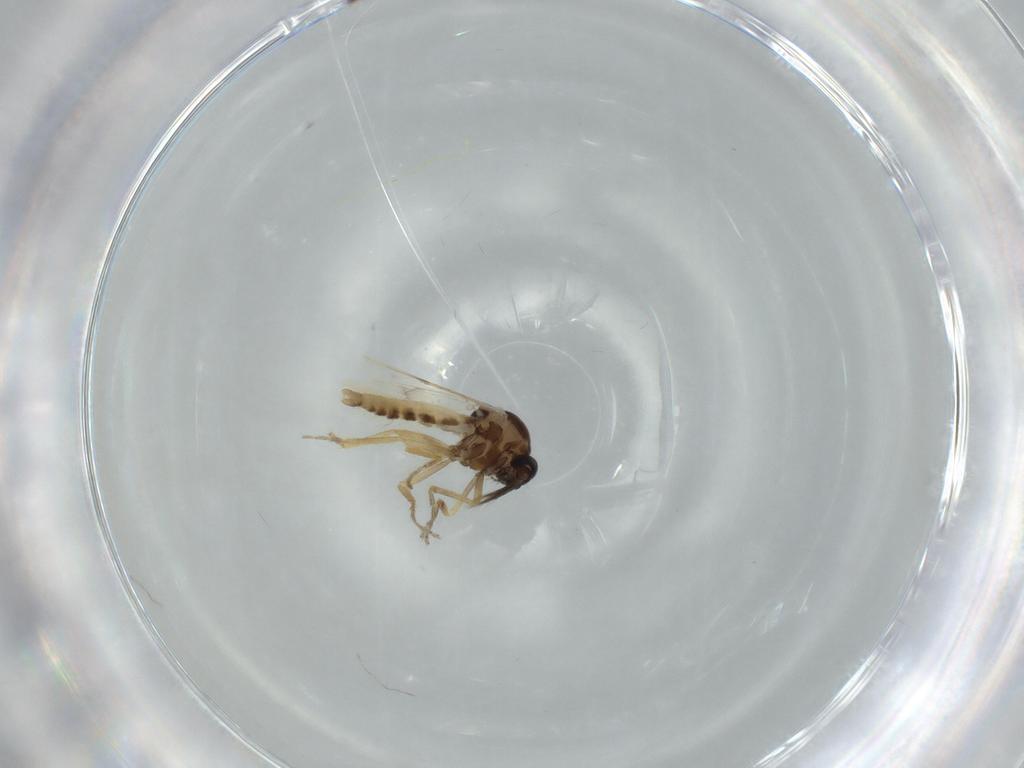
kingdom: Animalia
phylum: Arthropoda
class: Insecta
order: Diptera
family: Ceratopogonidae
